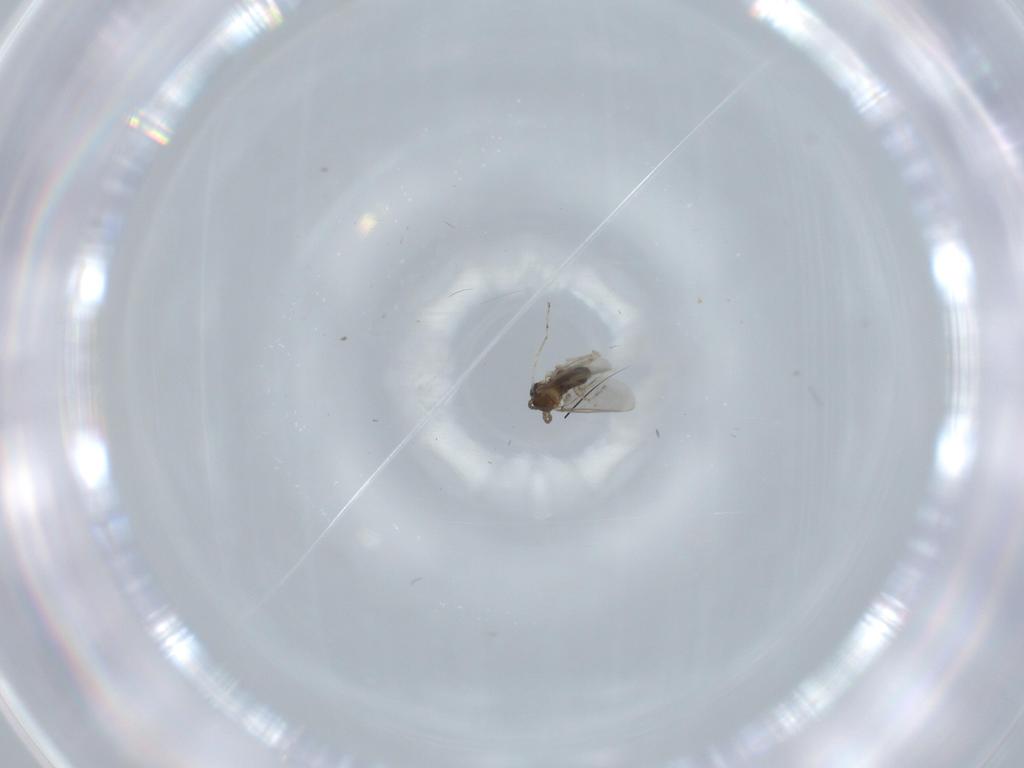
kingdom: Animalia
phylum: Arthropoda
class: Insecta
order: Diptera
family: Cecidomyiidae
